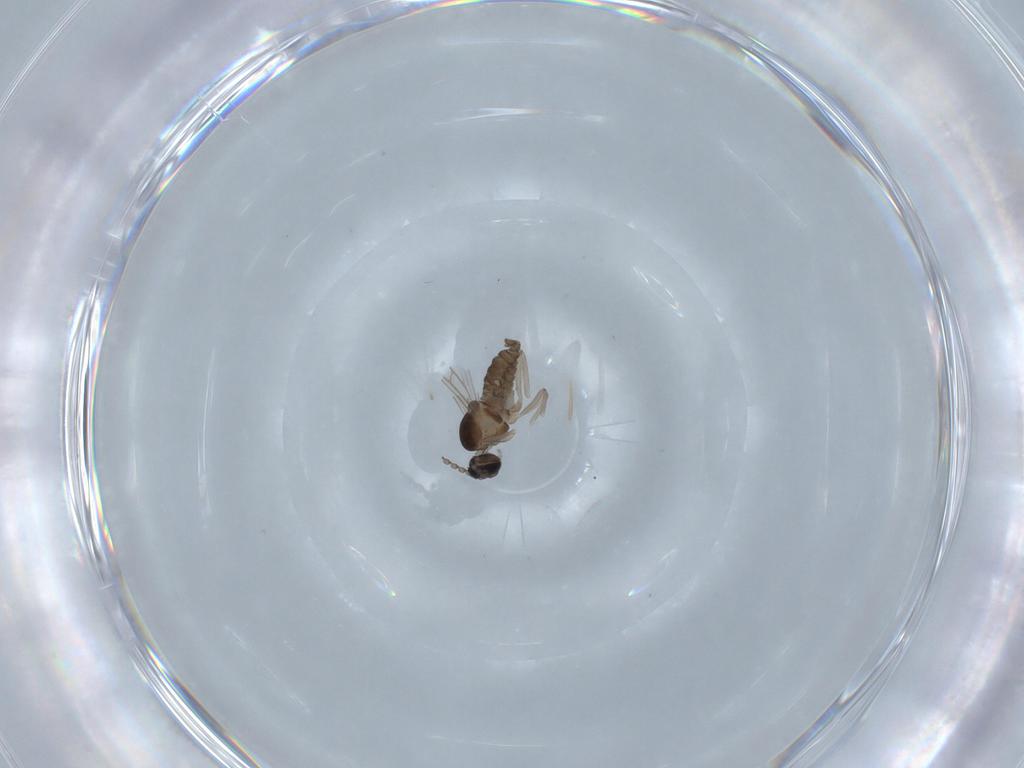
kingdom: Animalia
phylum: Arthropoda
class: Insecta
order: Diptera
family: Cecidomyiidae
